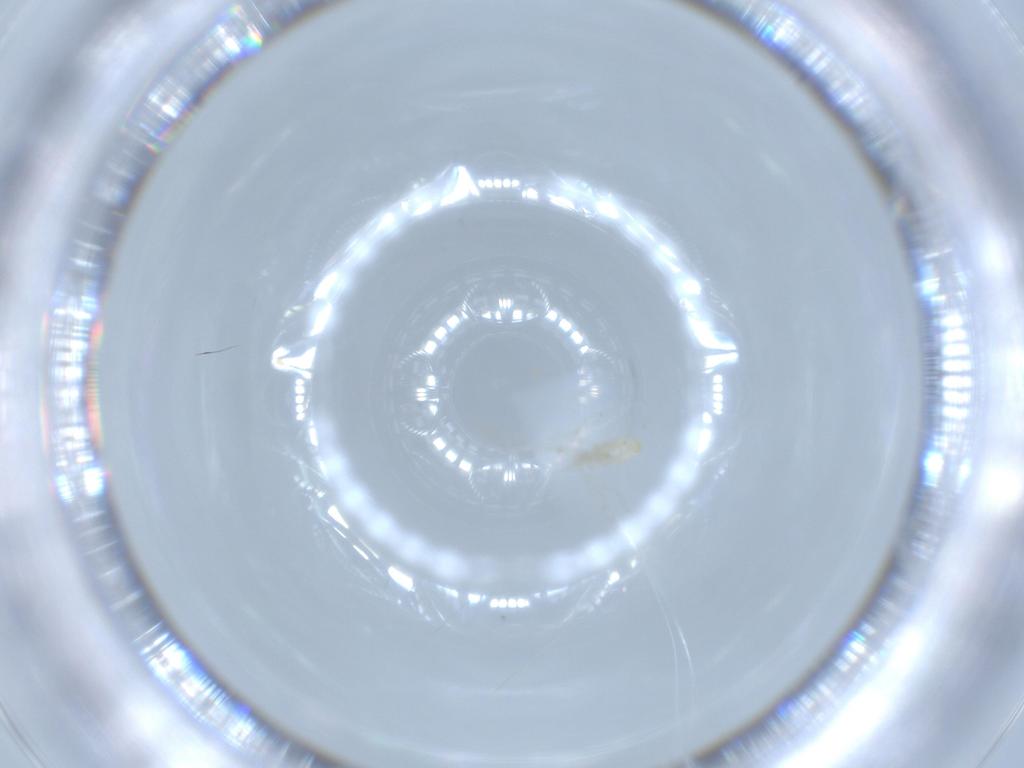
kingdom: Animalia
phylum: Arthropoda
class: Insecta
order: Diptera
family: Cecidomyiidae
